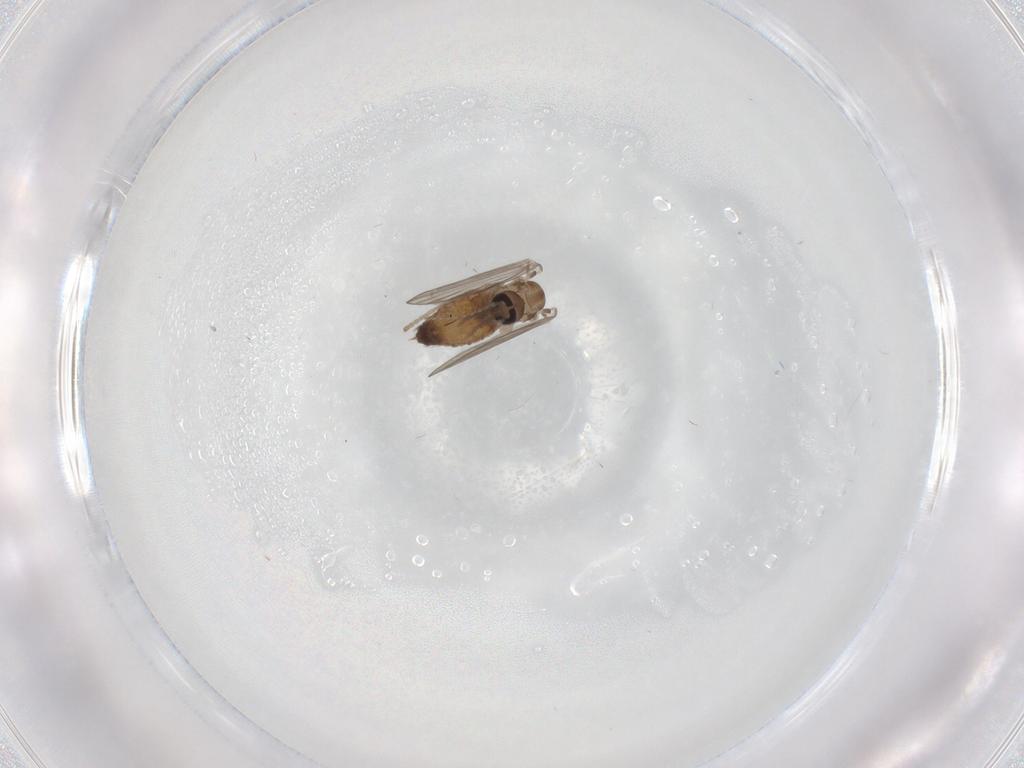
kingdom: Animalia
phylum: Arthropoda
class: Insecta
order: Diptera
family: Psychodidae
